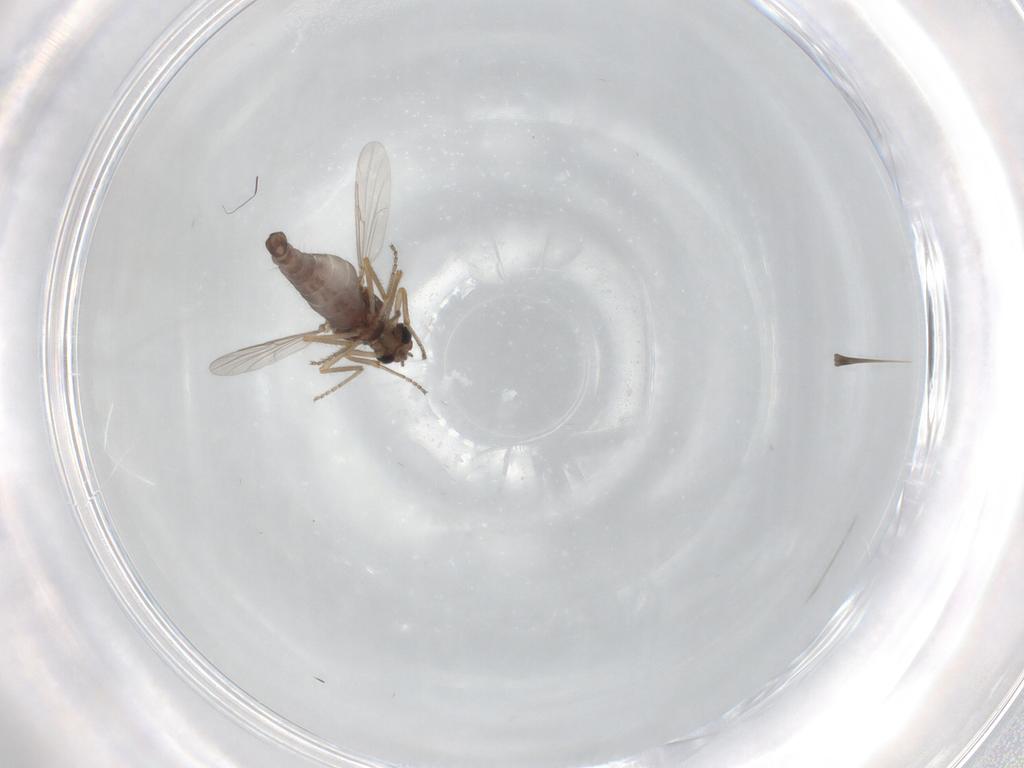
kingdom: Animalia
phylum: Arthropoda
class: Insecta
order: Diptera
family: Ceratopogonidae
